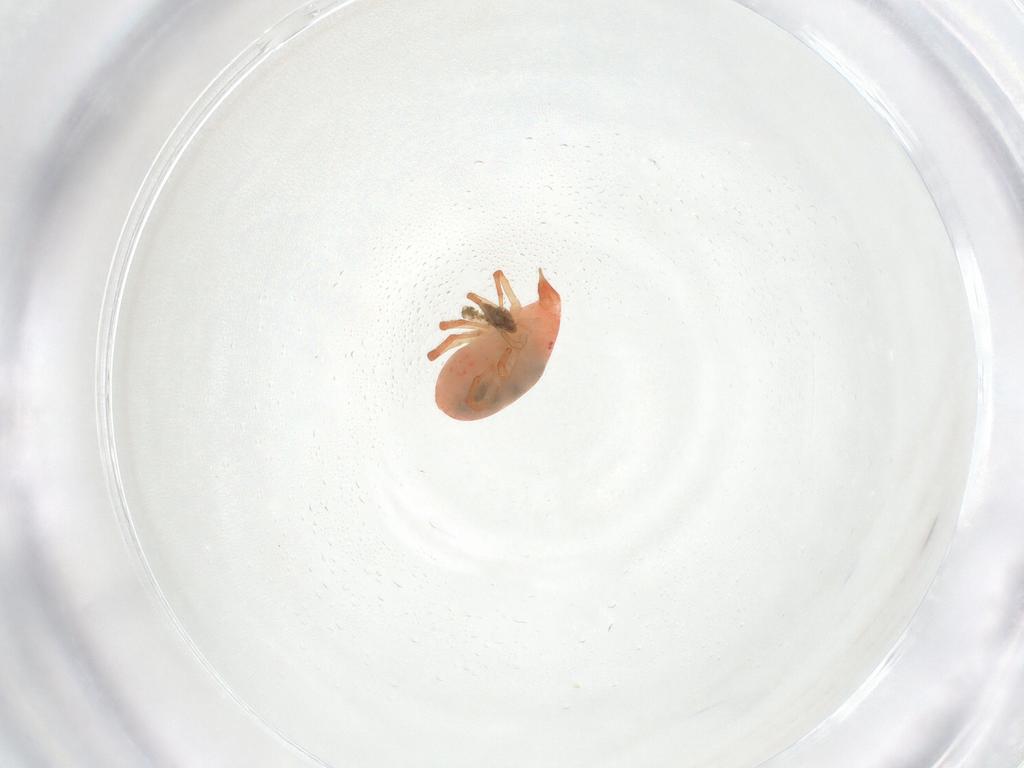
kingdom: Animalia
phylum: Arthropoda
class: Arachnida
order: Trombidiformes
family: Bdellidae
